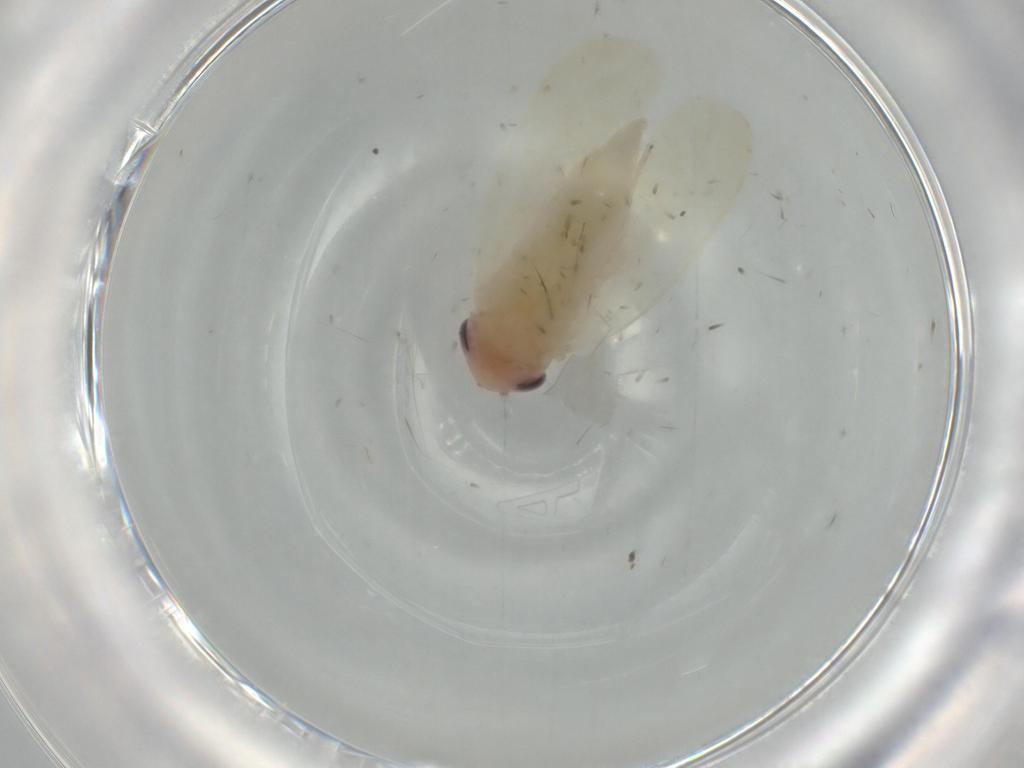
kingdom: Animalia
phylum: Arthropoda
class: Insecta
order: Hemiptera
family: Cicadellidae
